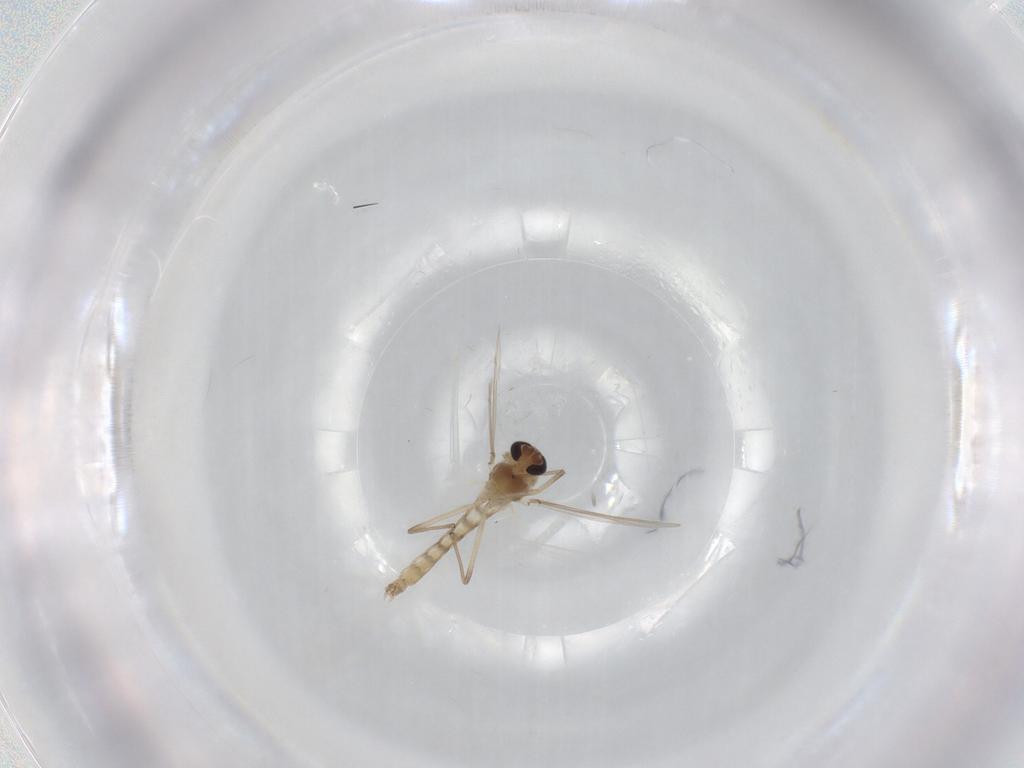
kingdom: Animalia
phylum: Arthropoda
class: Insecta
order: Diptera
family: Chironomidae
